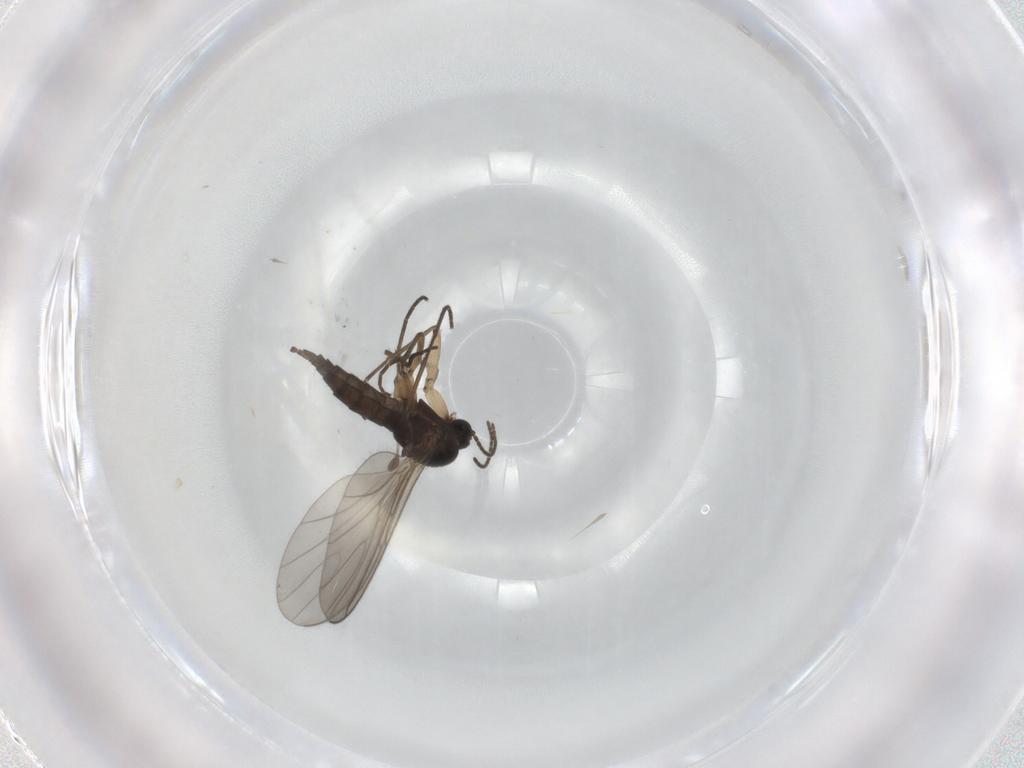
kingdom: Animalia
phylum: Arthropoda
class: Insecta
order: Diptera
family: Sciaridae
